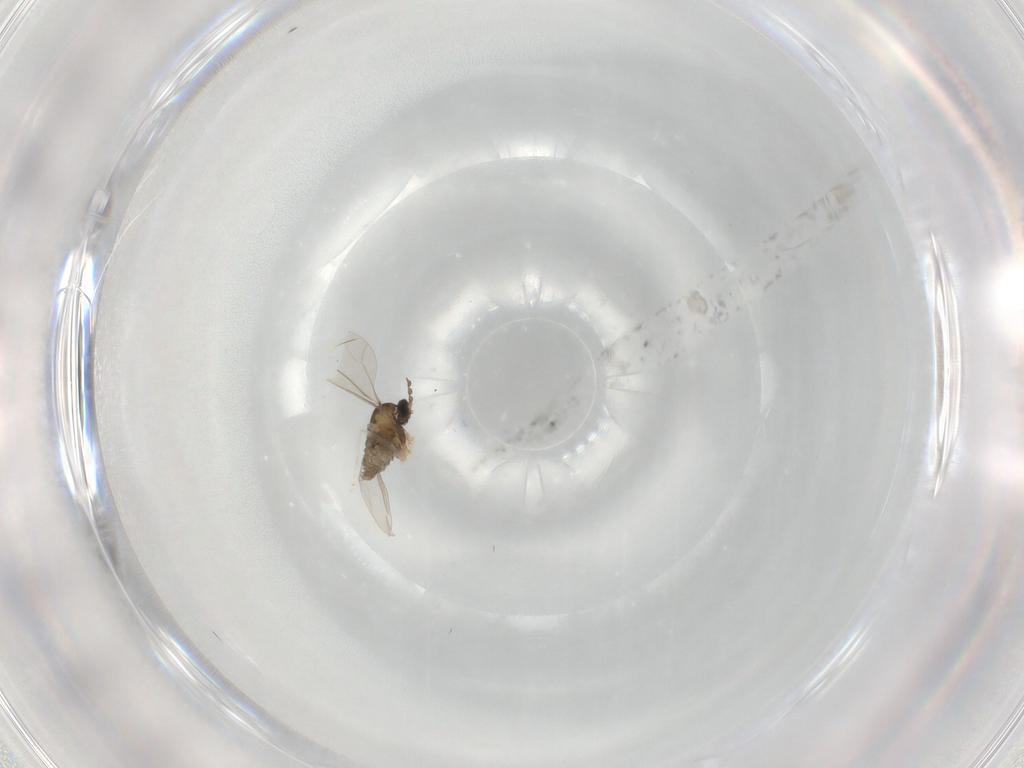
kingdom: Animalia
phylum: Arthropoda
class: Insecta
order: Diptera
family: Cecidomyiidae
